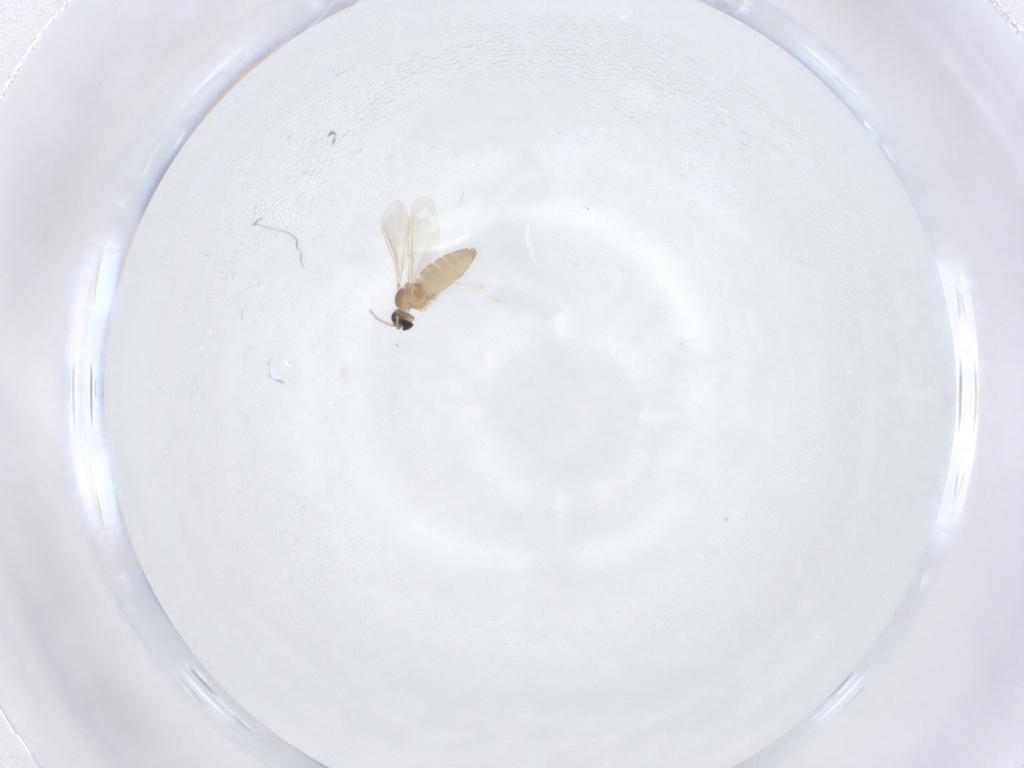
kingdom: Animalia
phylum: Arthropoda
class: Insecta
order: Diptera
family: Cecidomyiidae
